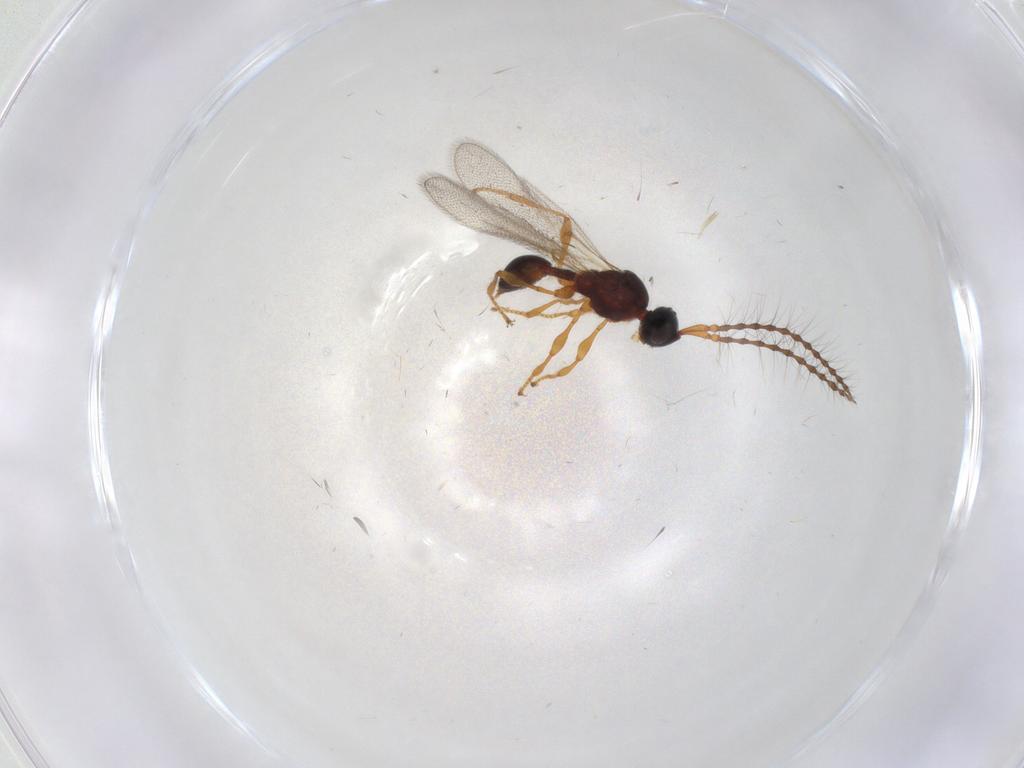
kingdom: Animalia
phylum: Arthropoda
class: Insecta
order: Hymenoptera
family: Diapriidae
